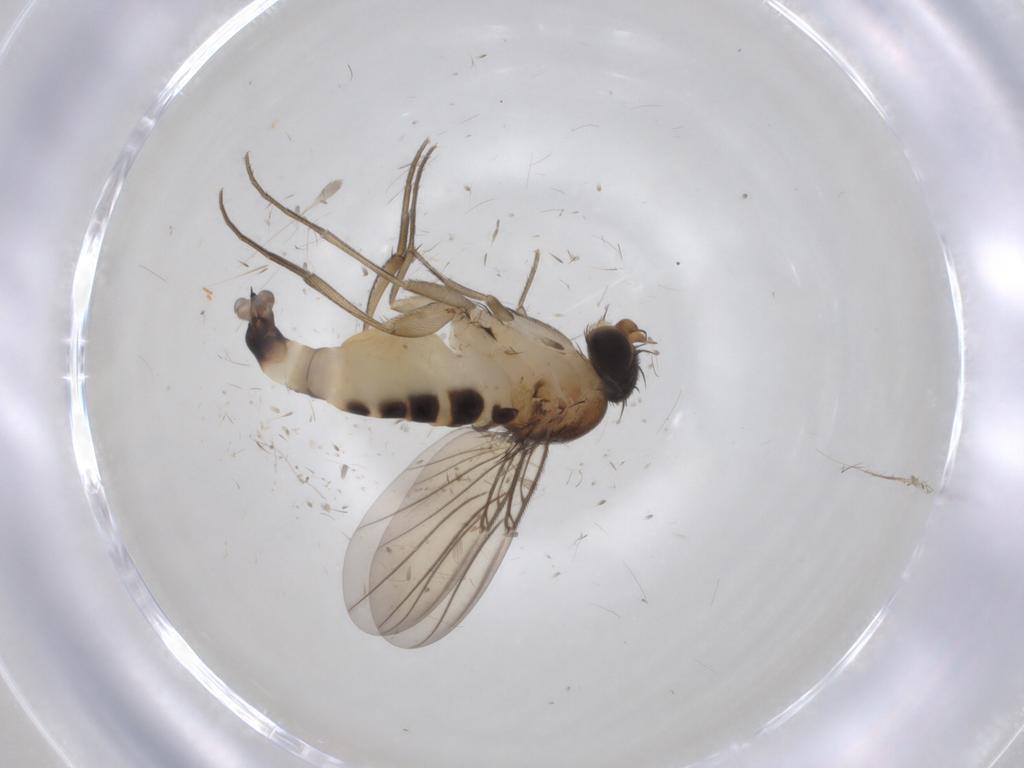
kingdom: Animalia
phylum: Arthropoda
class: Insecta
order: Diptera
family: Phoridae
